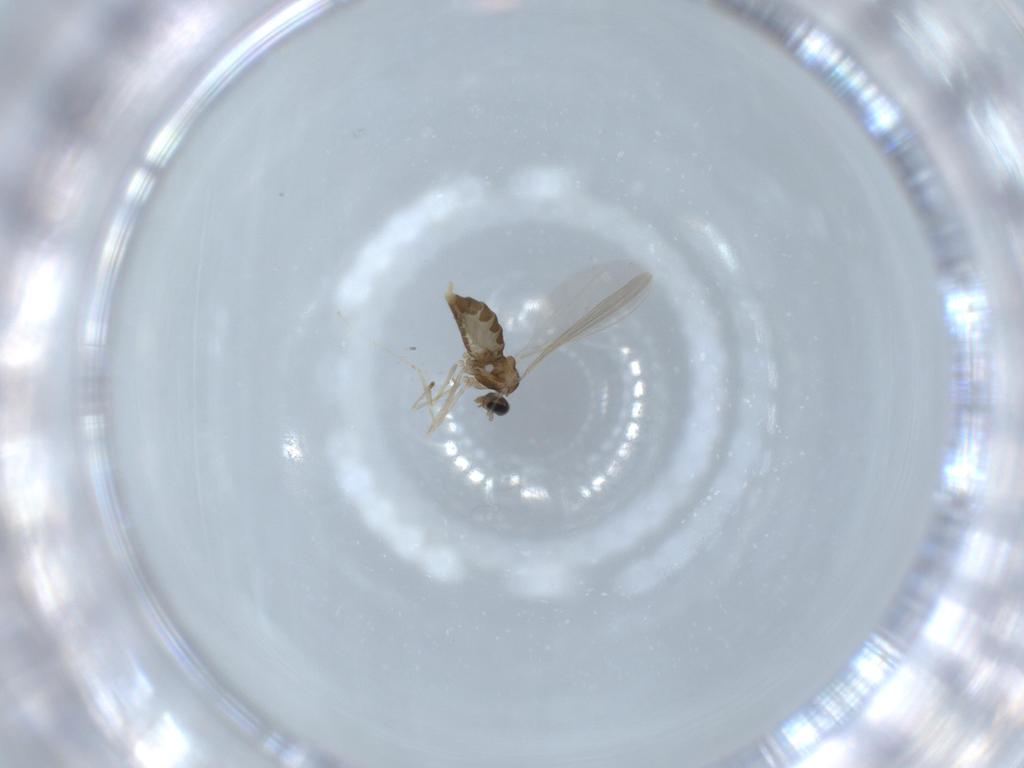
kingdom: Animalia
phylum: Arthropoda
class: Insecta
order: Diptera
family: Cecidomyiidae
